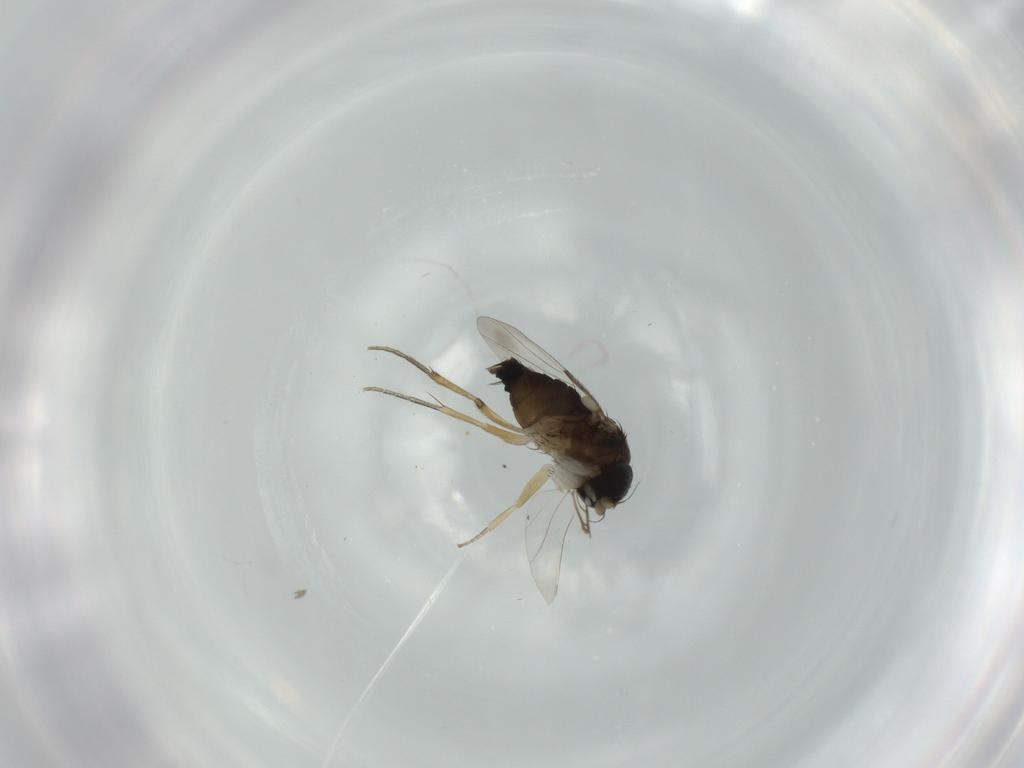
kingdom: Animalia
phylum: Arthropoda
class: Insecta
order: Diptera
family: Phoridae
